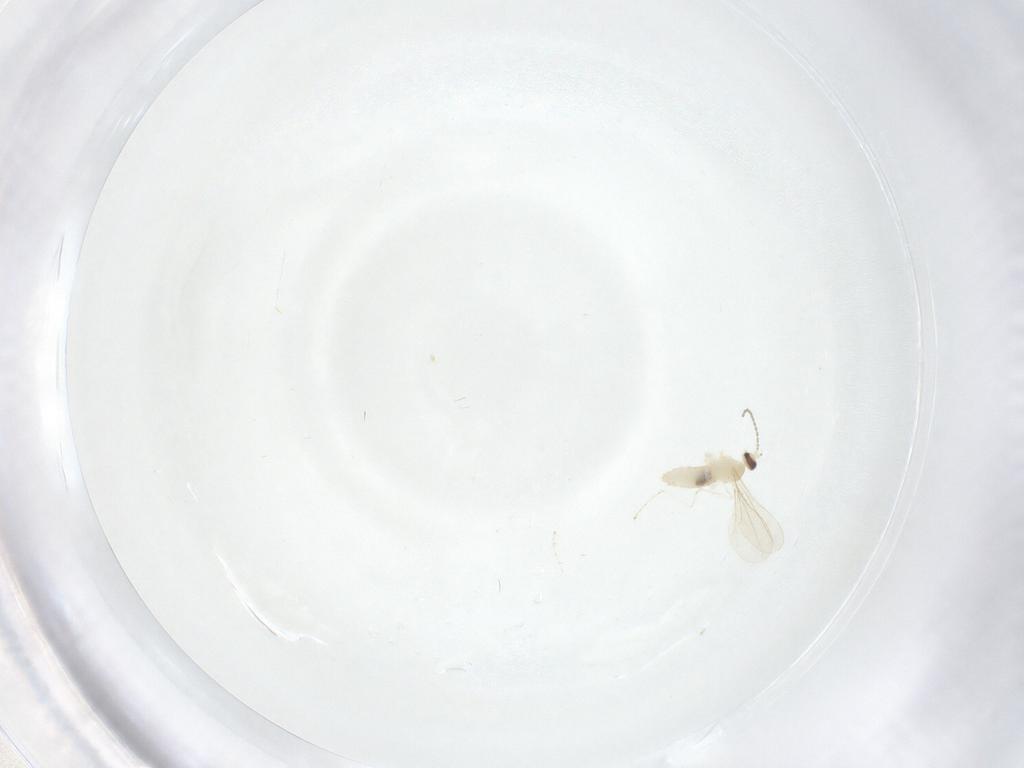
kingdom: Animalia
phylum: Arthropoda
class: Insecta
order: Diptera
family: Cecidomyiidae
